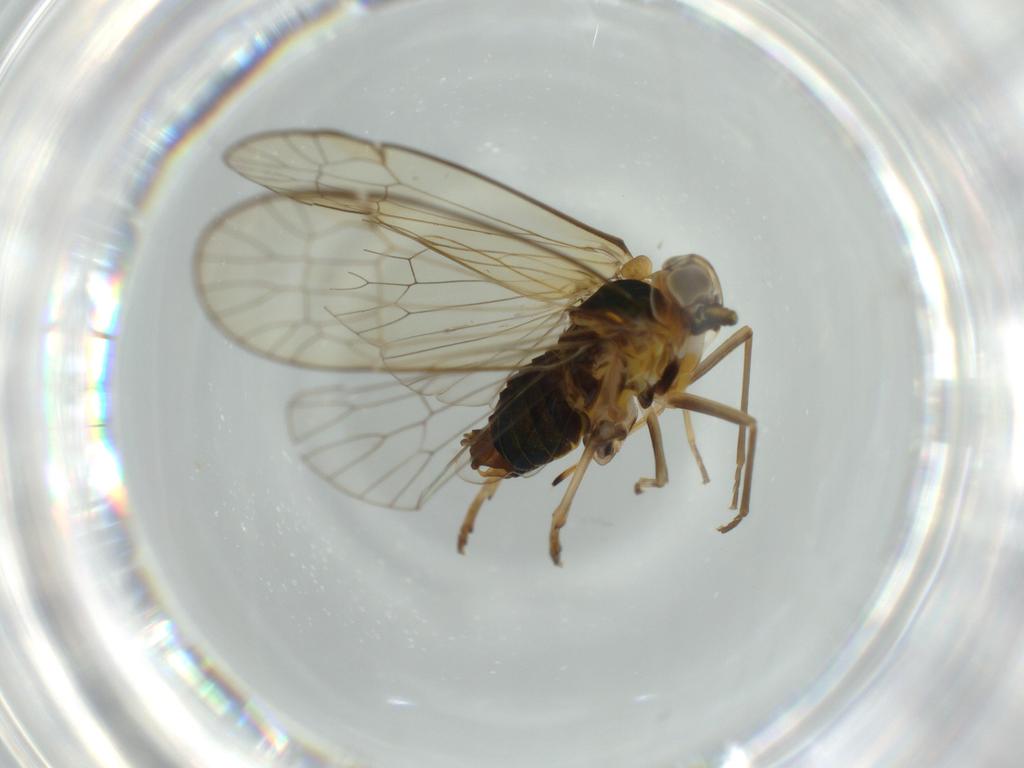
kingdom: Animalia
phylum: Arthropoda
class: Insecta
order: Hemiptera
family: Kinnaridae
